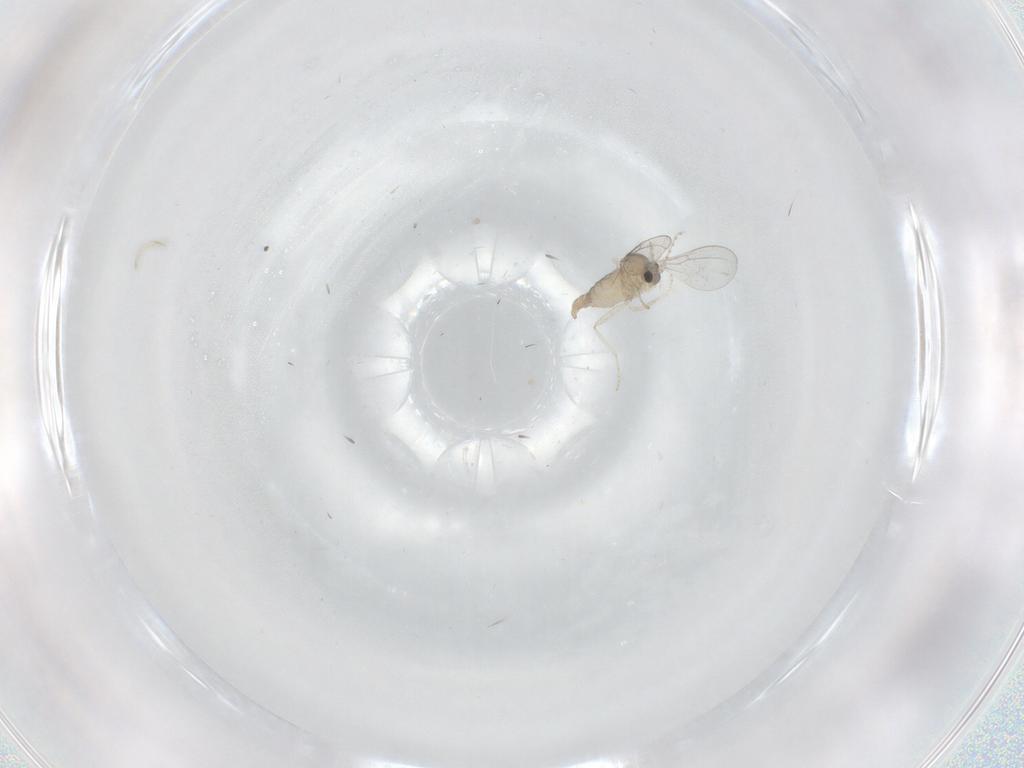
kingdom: Animalia
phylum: Arthropoda
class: Insecta
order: Diptera
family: Cecidomyiidae
